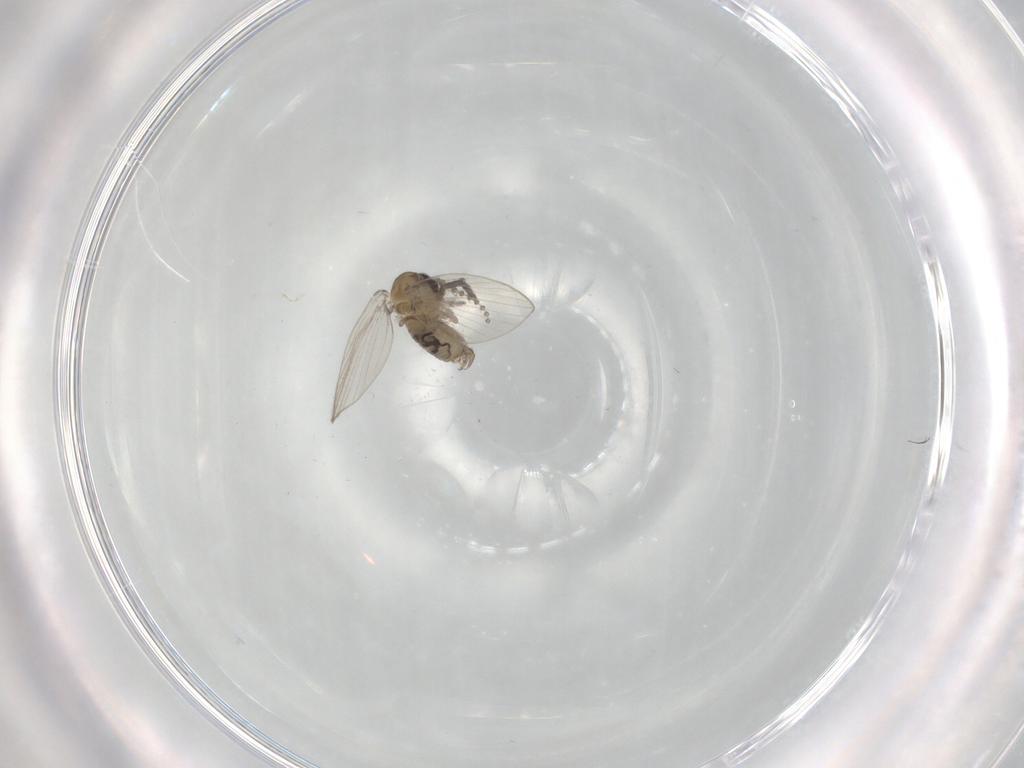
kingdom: Animalia
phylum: Arthropoda
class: Insecta
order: Diptera
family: Psychodidae
